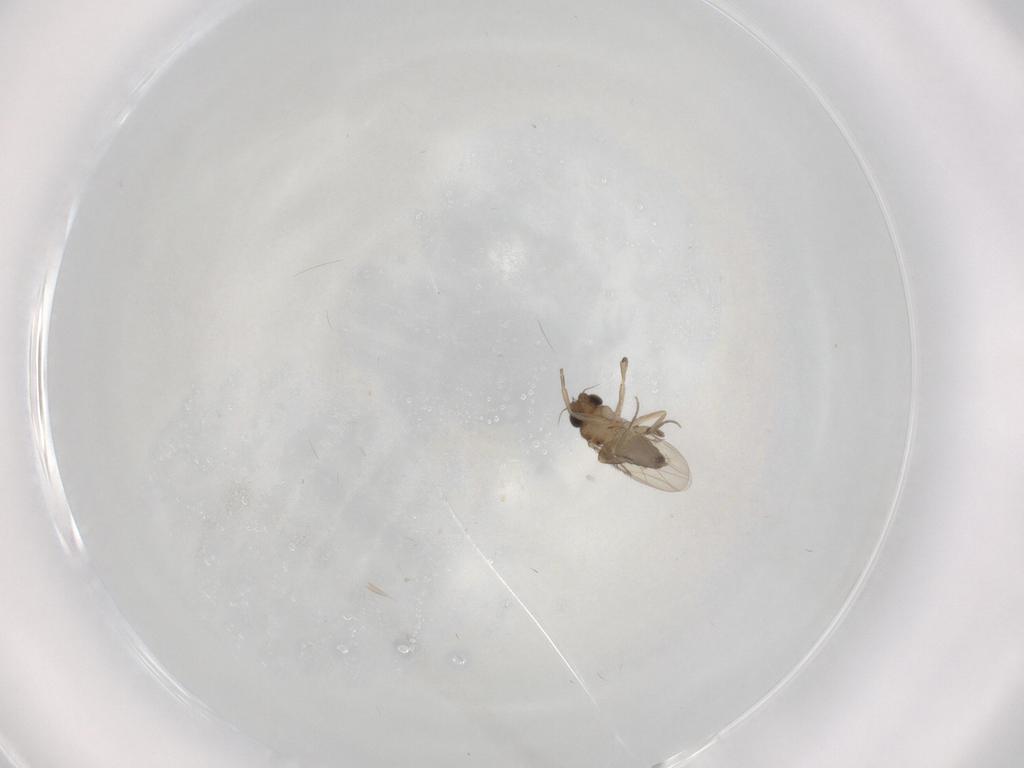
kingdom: Animalia
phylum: Arthropoda
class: Insecta
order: Diptera
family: Phoridae
